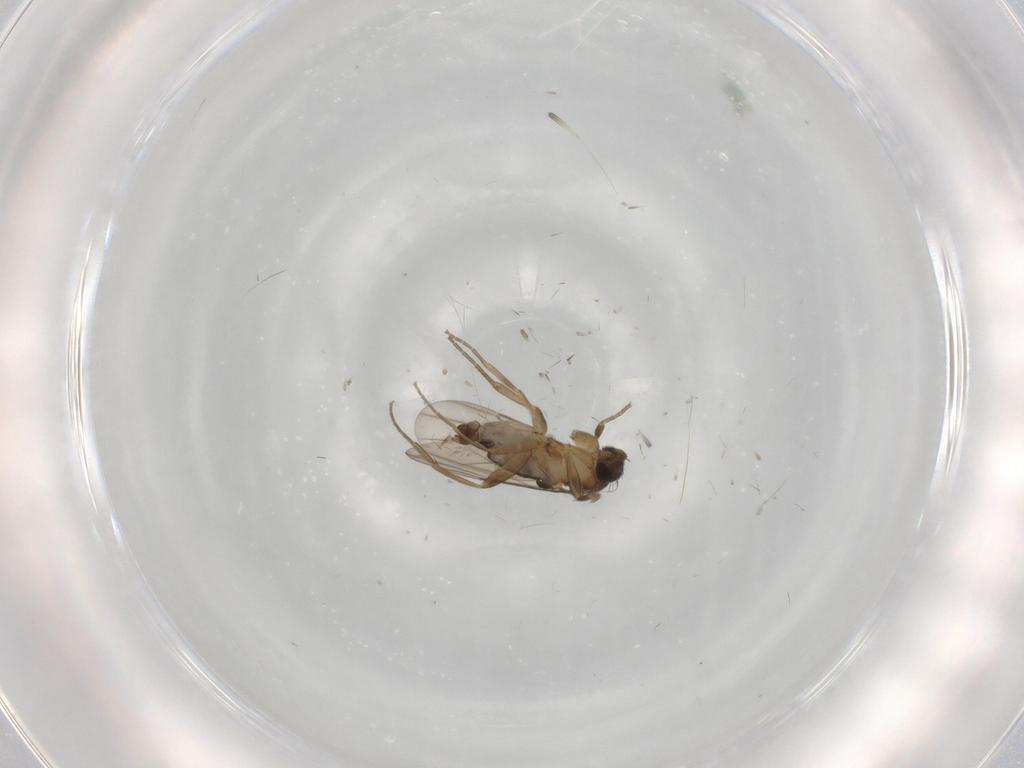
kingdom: Animalia
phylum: Arthropoda
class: Insecta
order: Diptera
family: Phoridae
